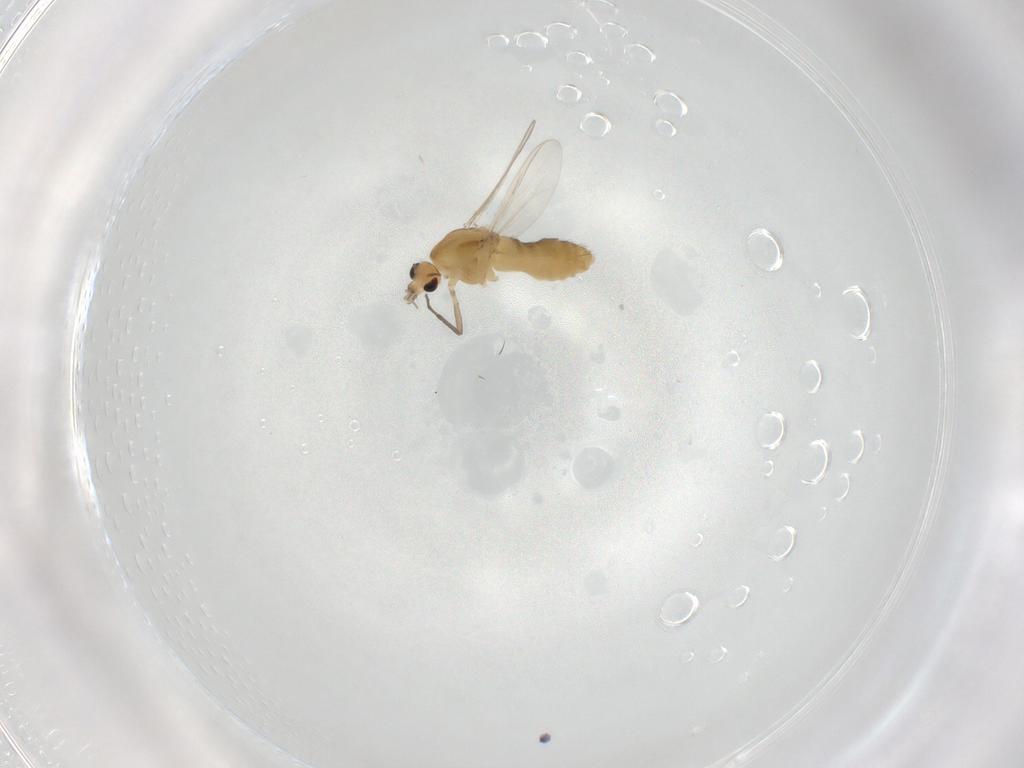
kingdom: Animalia
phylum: Arthropoda
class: Insecta
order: Diptera
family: Chironomidae
